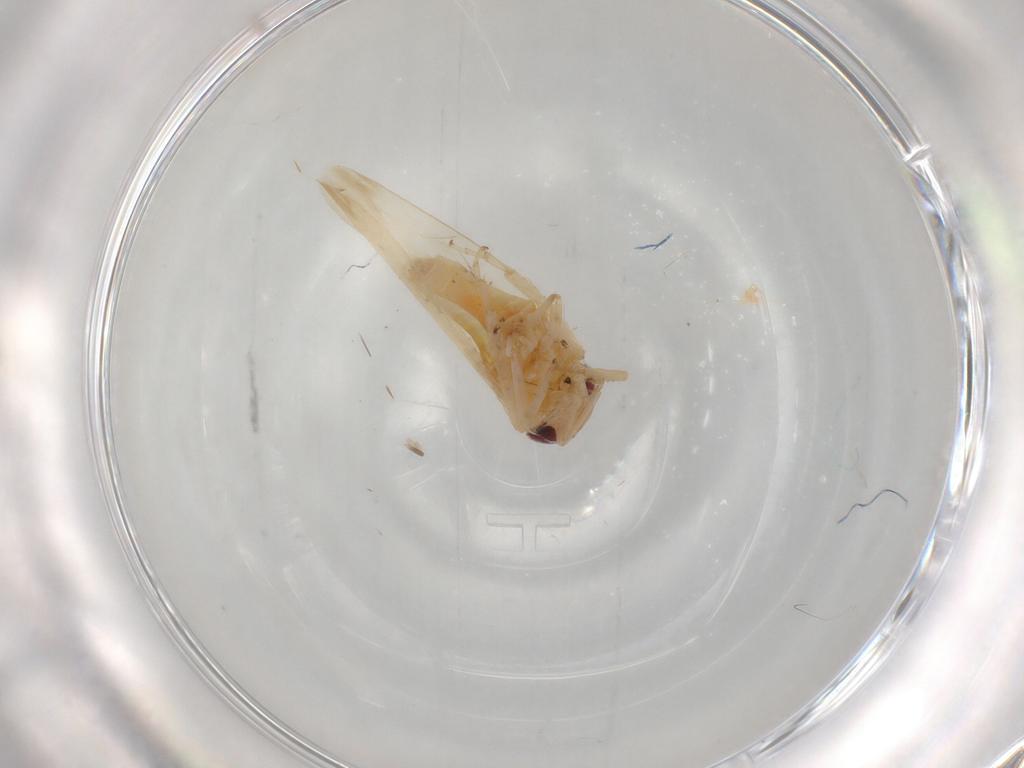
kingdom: Animalia
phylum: Arthropoda
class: Insecta
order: Hemiptera
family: Cicadellidae
